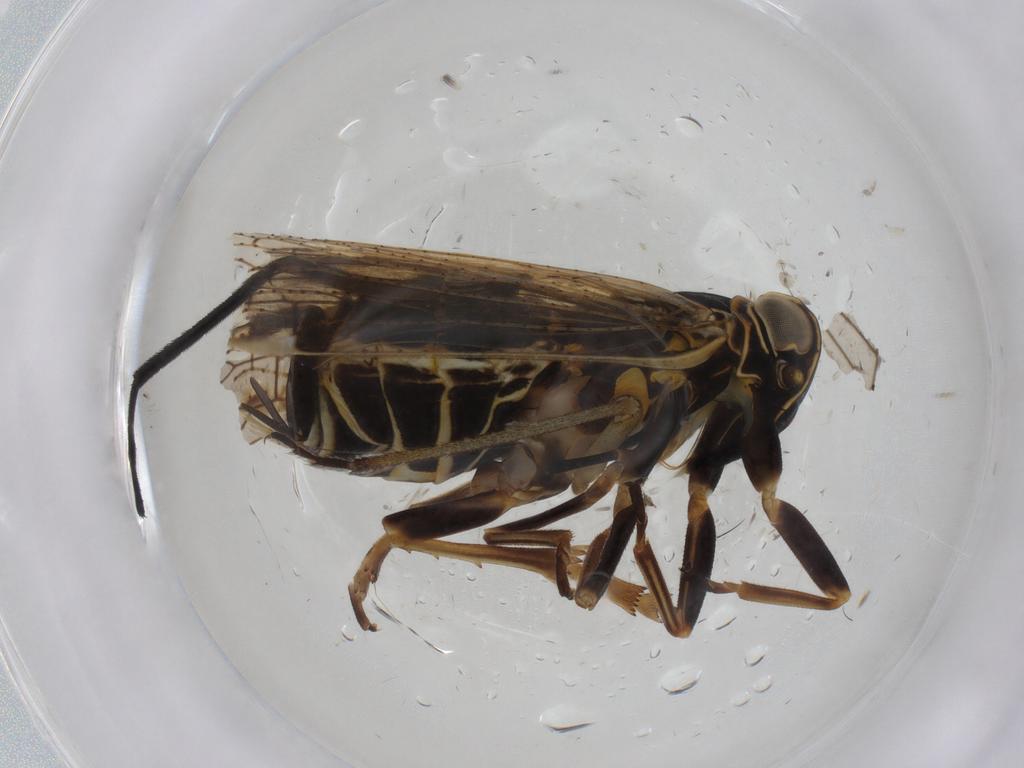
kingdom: Animalia
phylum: Arthropoda
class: Insecta
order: Hemiptera
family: Cixiidae
